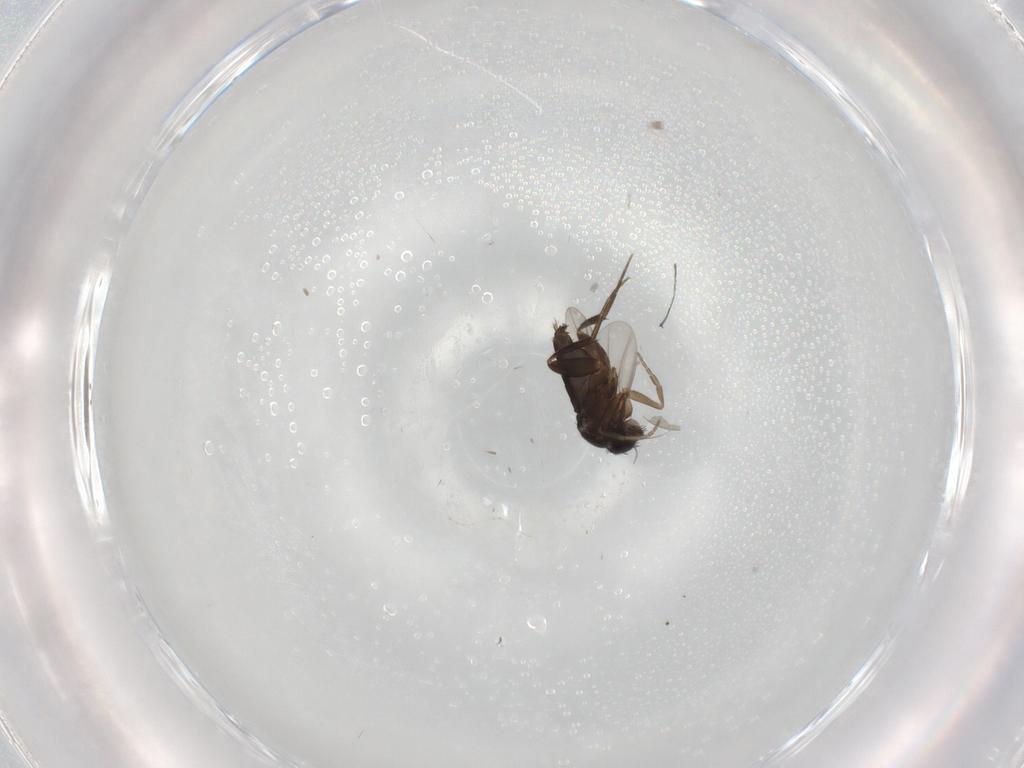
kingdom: Animalia
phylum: Arthropoda
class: Insecta
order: Diptera
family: Phoridae
